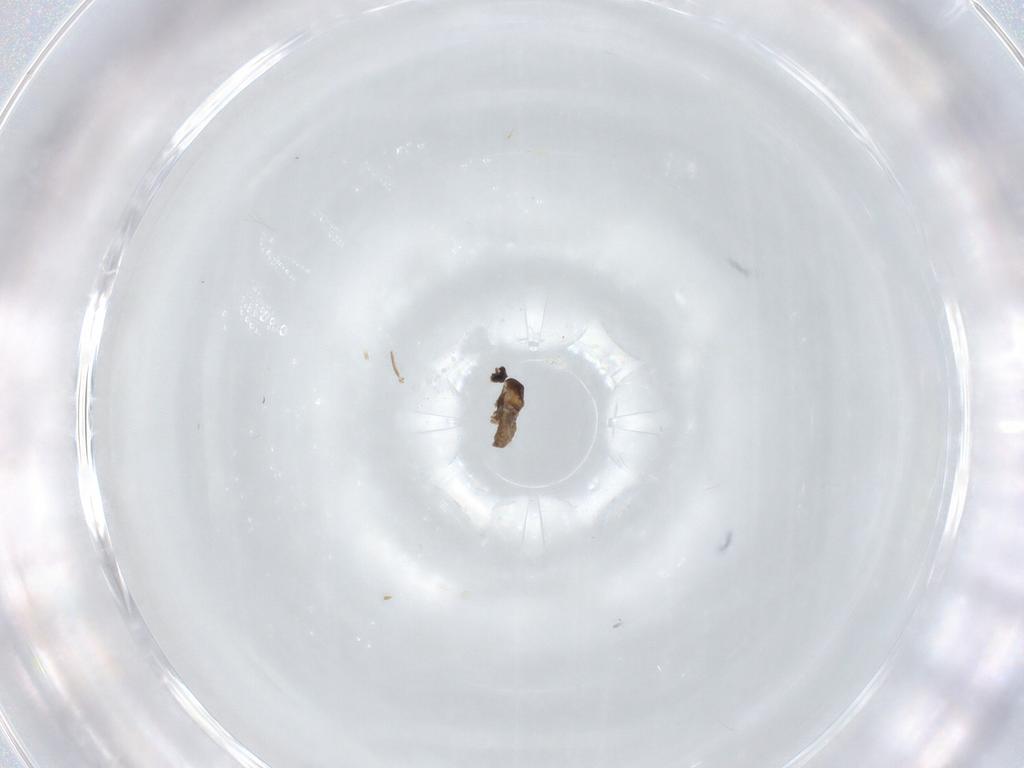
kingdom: Animalia
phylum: Arthropoda
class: Insecta
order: Diptera
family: Cecidomyiidae
